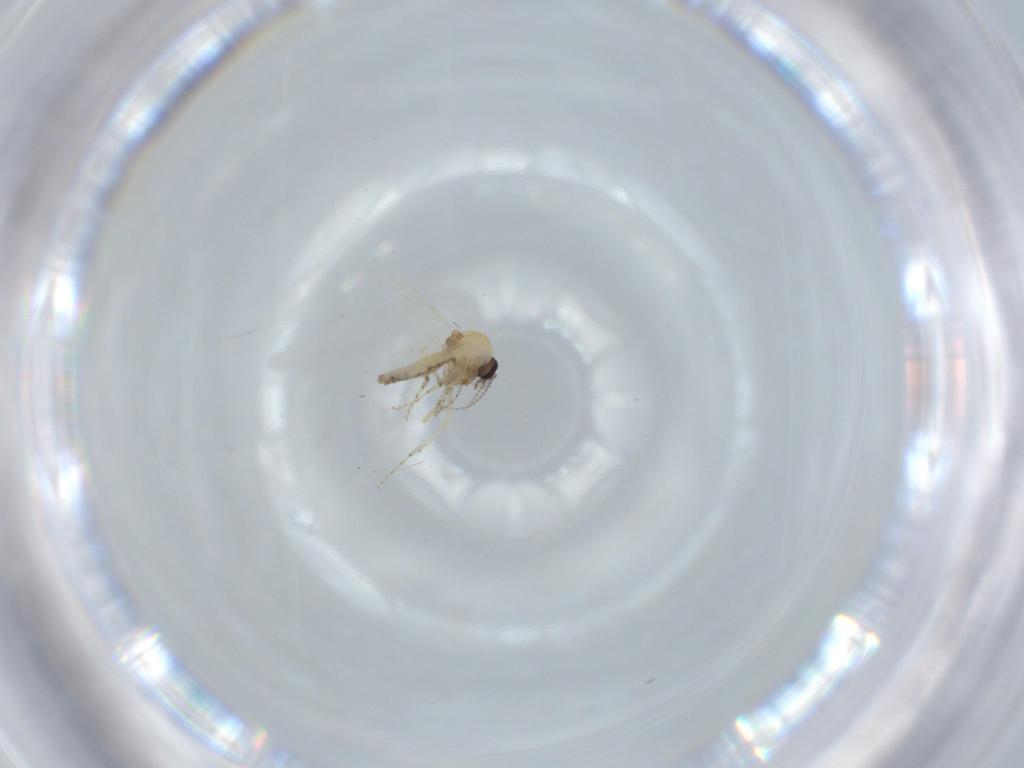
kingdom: Animalia
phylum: Arthropoda
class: Insecta
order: Diptera
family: Ceratopogonidae
